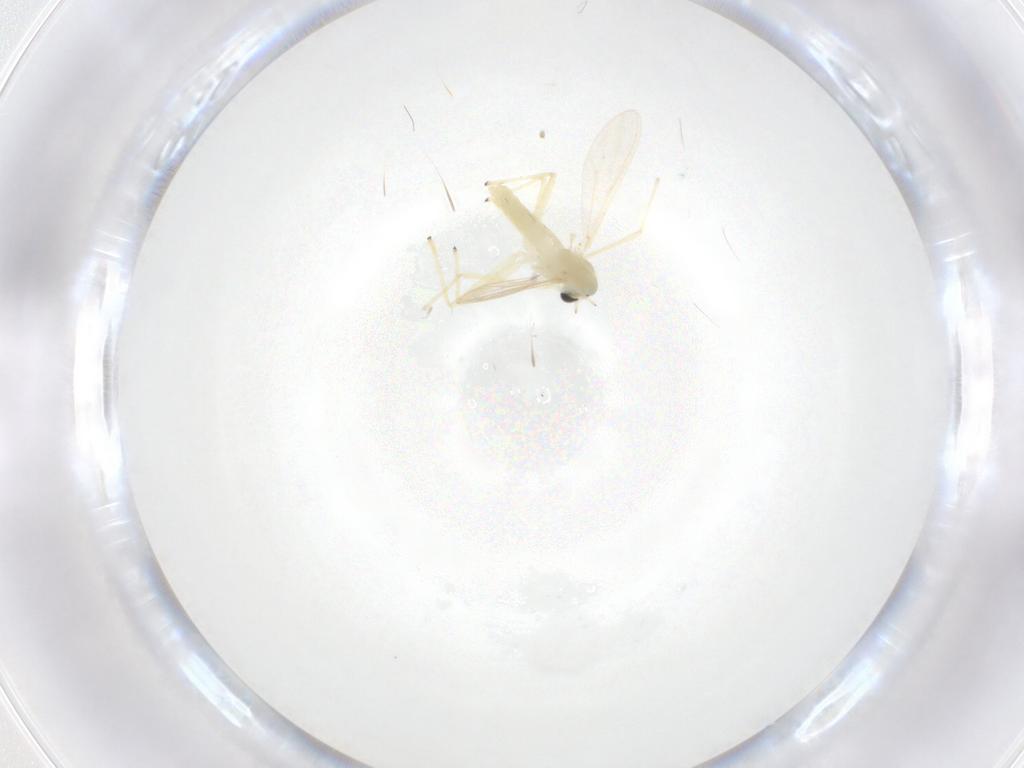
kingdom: Animalia
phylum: Arthropoda
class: Insecta
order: Diptera
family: Chironomidae
